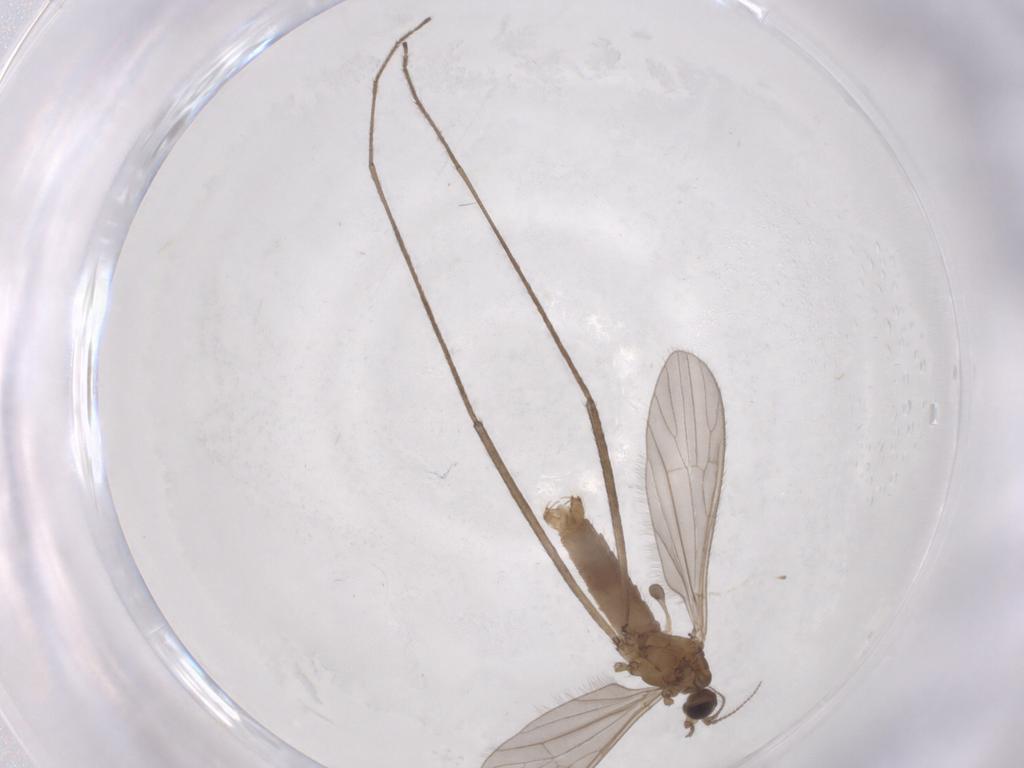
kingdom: Animalia
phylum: Arthropoda
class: Insecta
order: Diptera
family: Limoniidae
